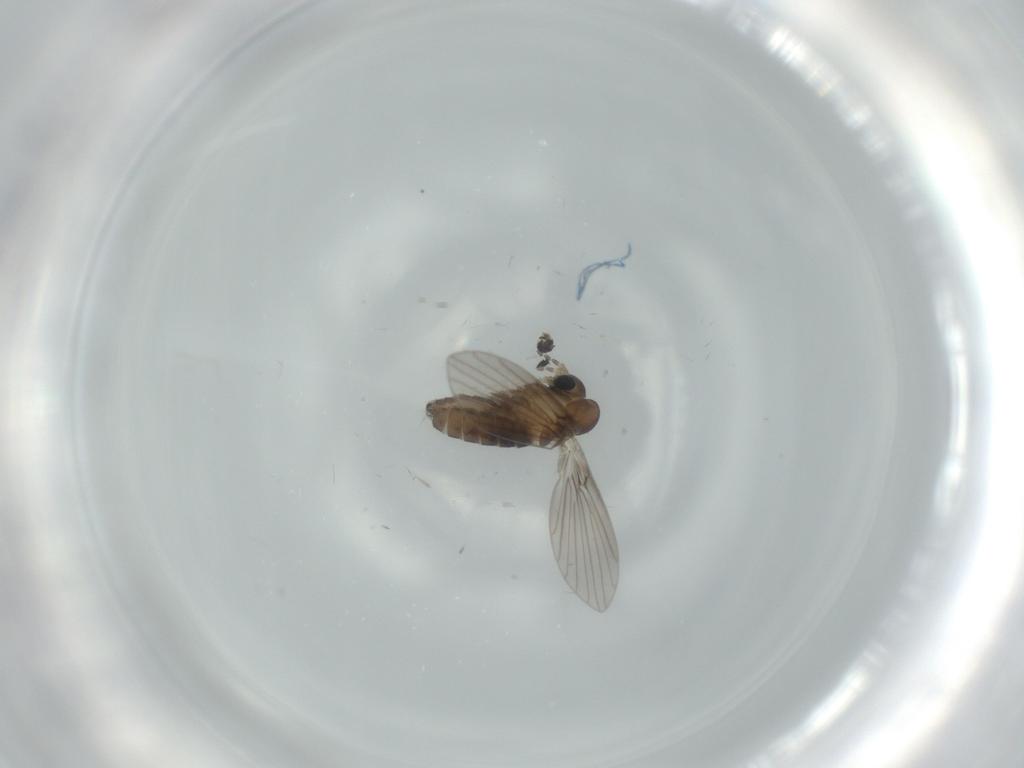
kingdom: Animalia
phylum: Arthropoda
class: Insecta
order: Diptera
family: Psychodidae
